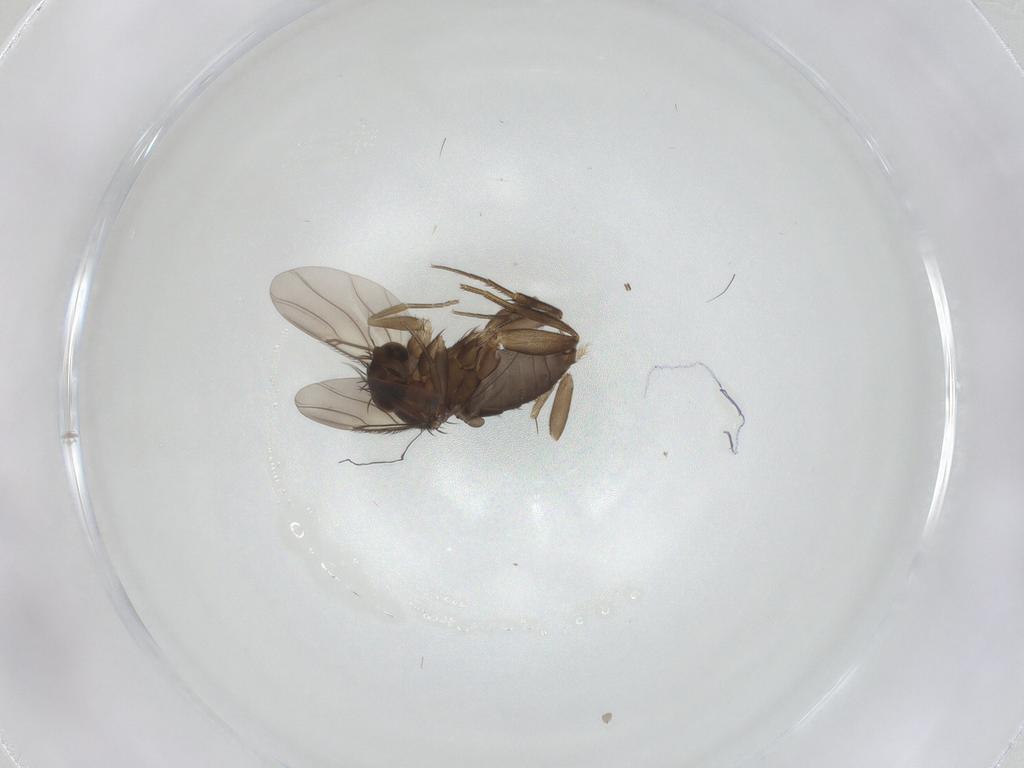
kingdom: Animalia
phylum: Arthropoda
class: Insecta
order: Diptera
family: Phoridae
